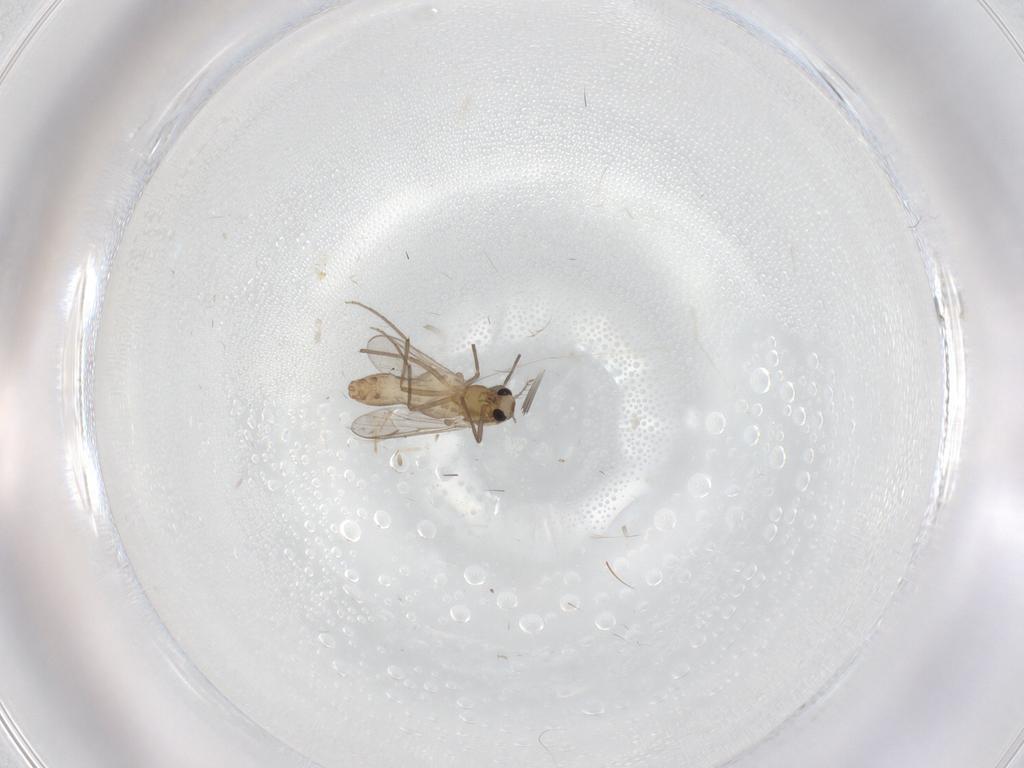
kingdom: Animalia
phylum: Arthropoda
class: Insecta
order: Diptera
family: Chironomidae
